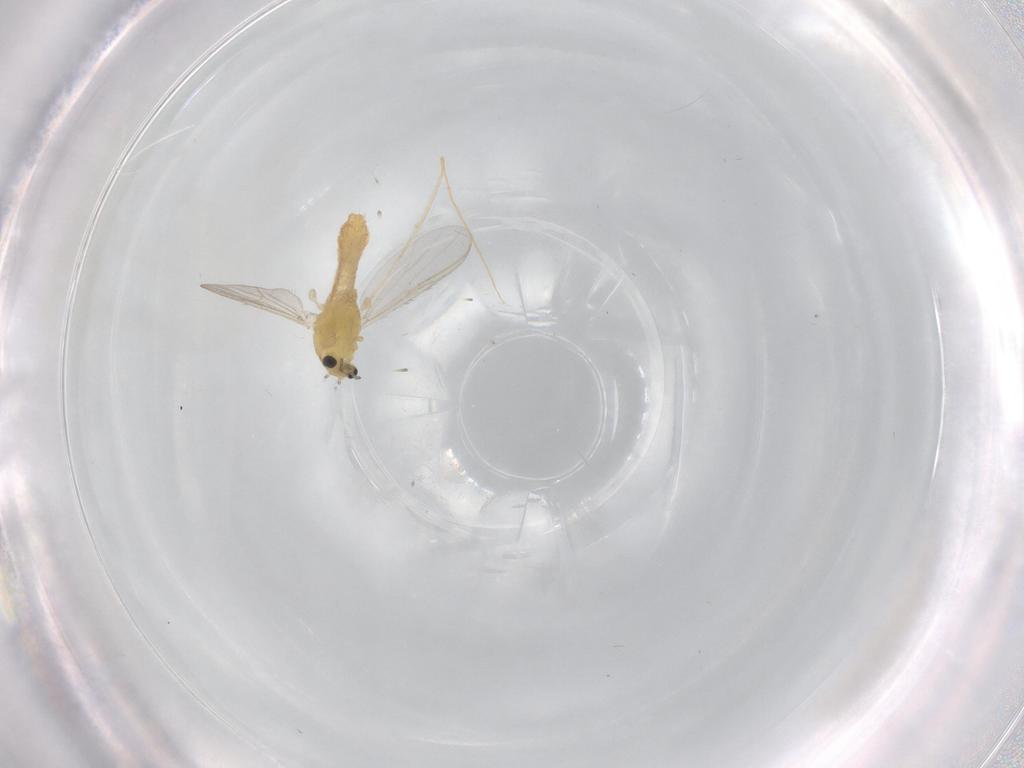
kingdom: Animalia
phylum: Arthropoda
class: Insecta
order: Diptera
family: Chironomidae
